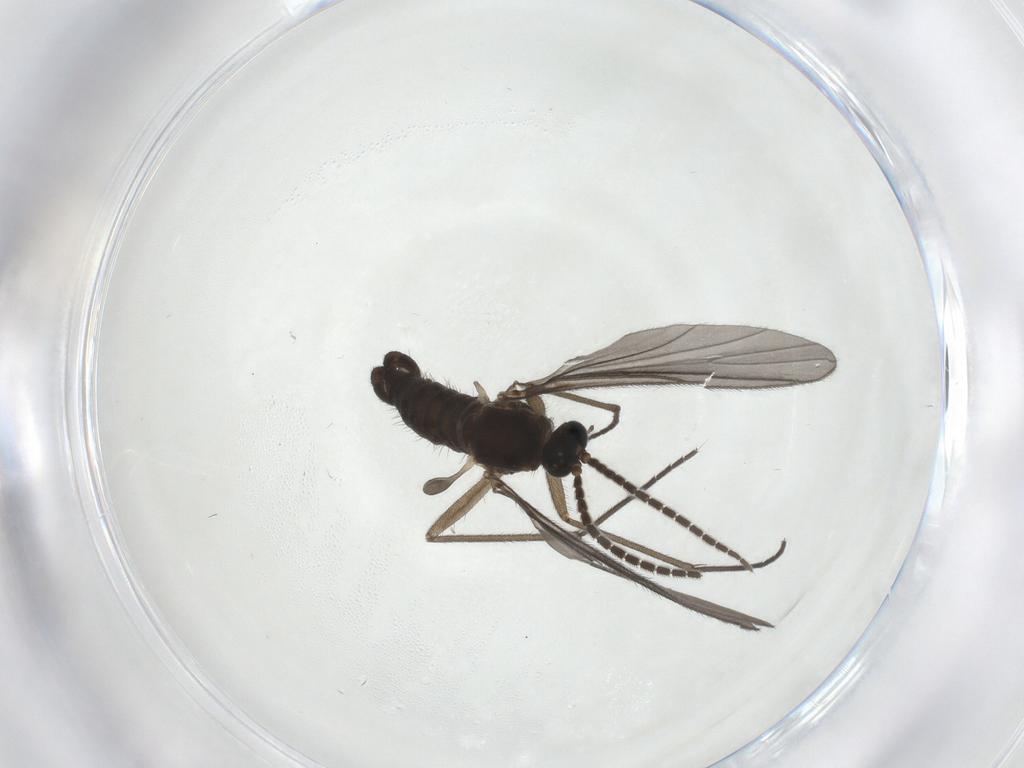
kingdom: Animalia
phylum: Arthropoda
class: Insecta
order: Diptera
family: Sciaridae
